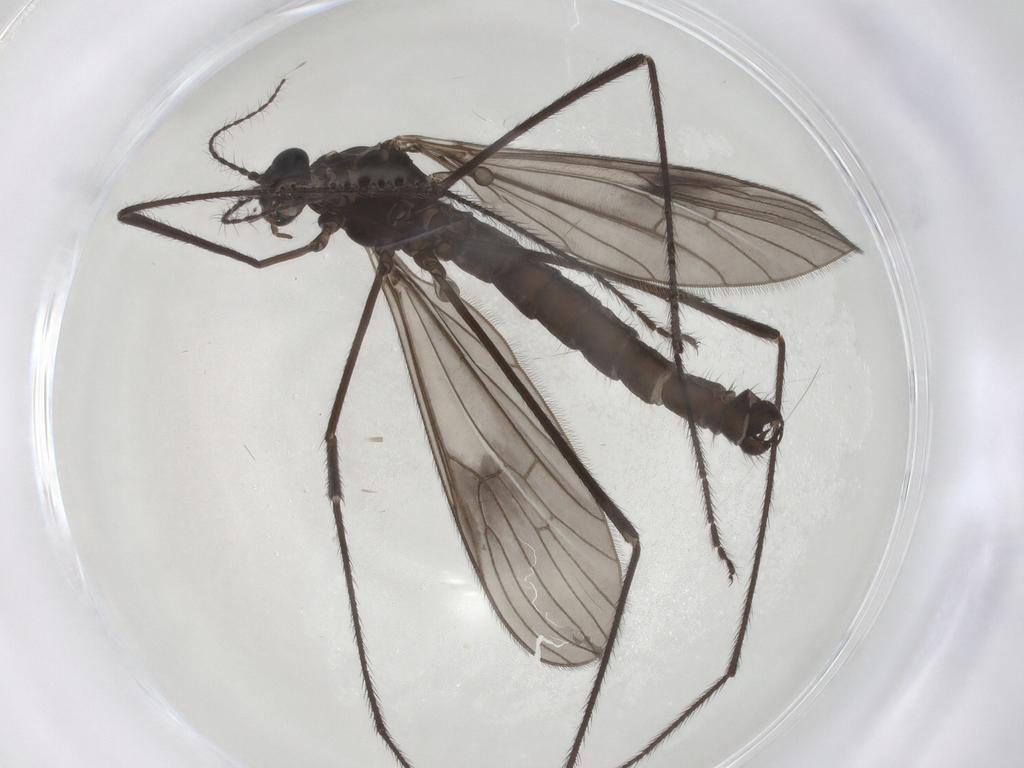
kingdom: Animalia
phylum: Arthropoda
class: Insecta
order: Diptera
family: Limoniidae
